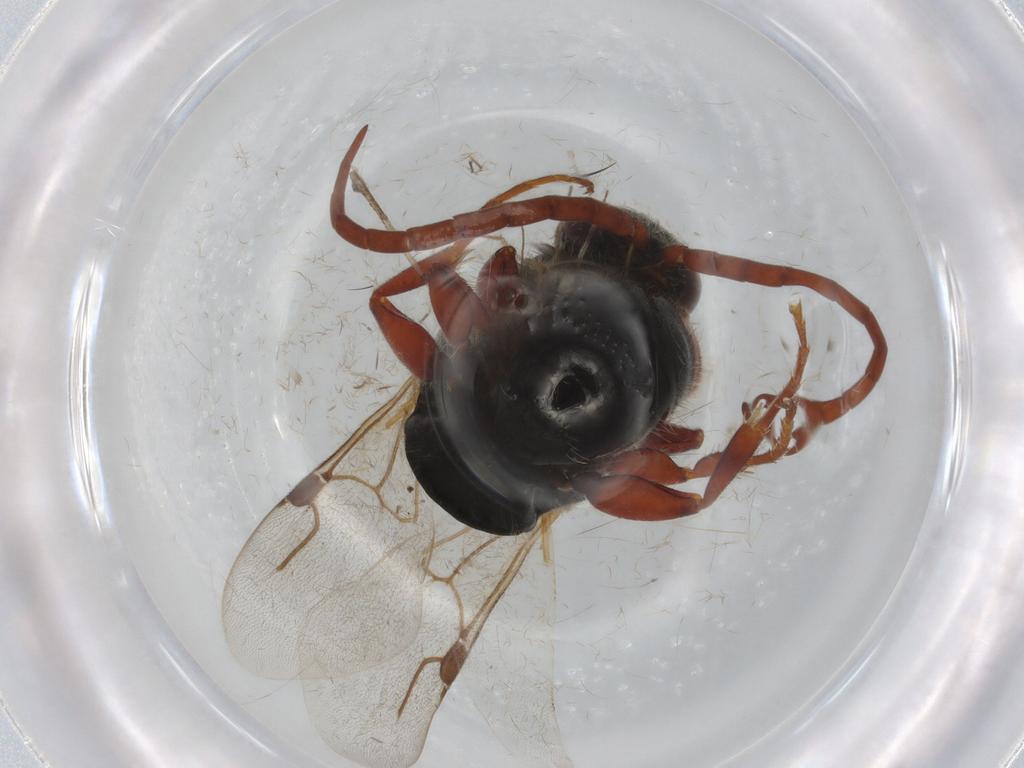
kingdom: Animalia
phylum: Arthropoda
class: Insecta
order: Hymenoptera
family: Bethylidae
